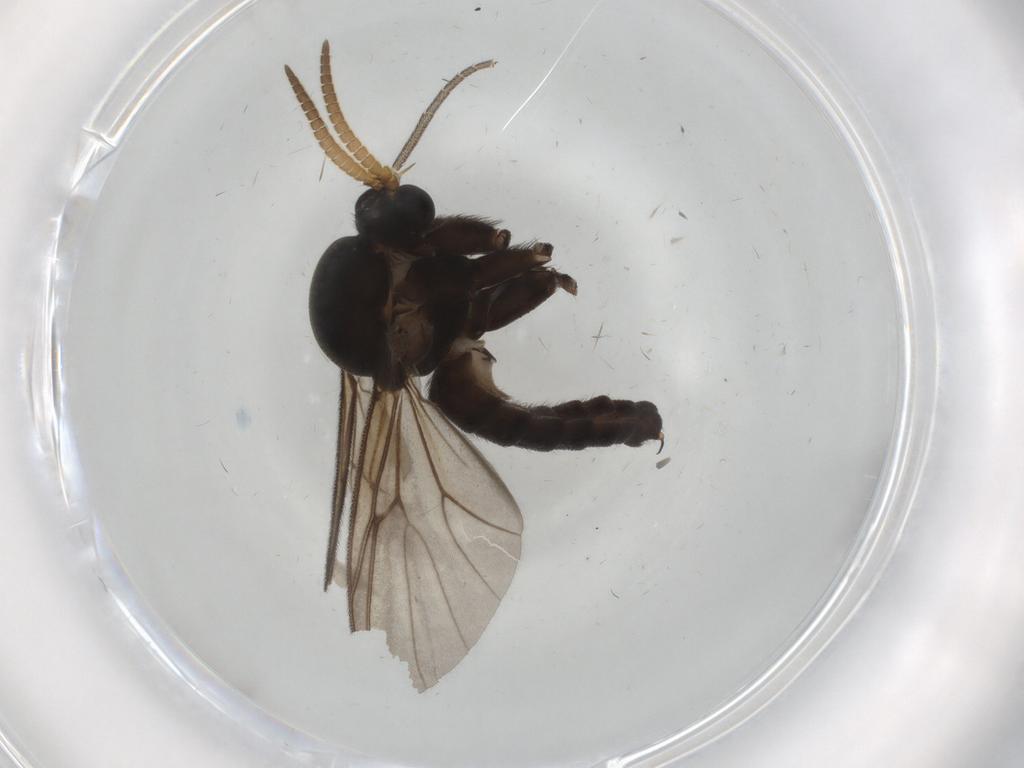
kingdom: Animalia
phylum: Arthropoda
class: Insecta
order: Diptera
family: Mycetophilidae
